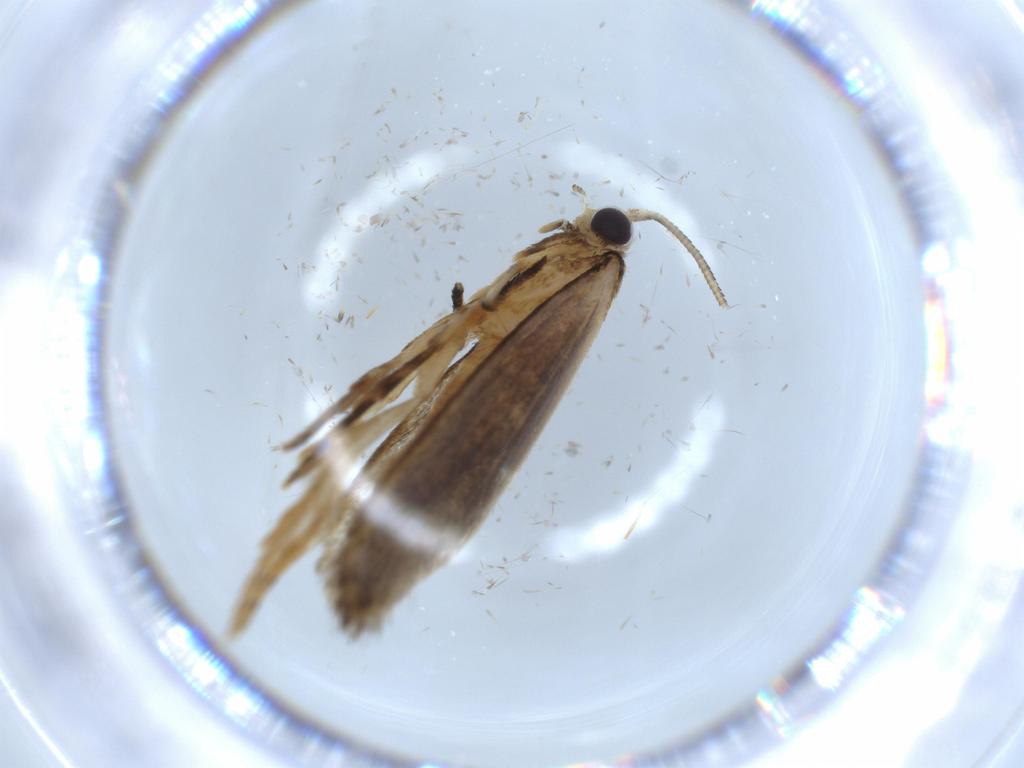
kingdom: Animalia
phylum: Arthropoda
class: Insecta
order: Lepidoptera
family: Tineidae
